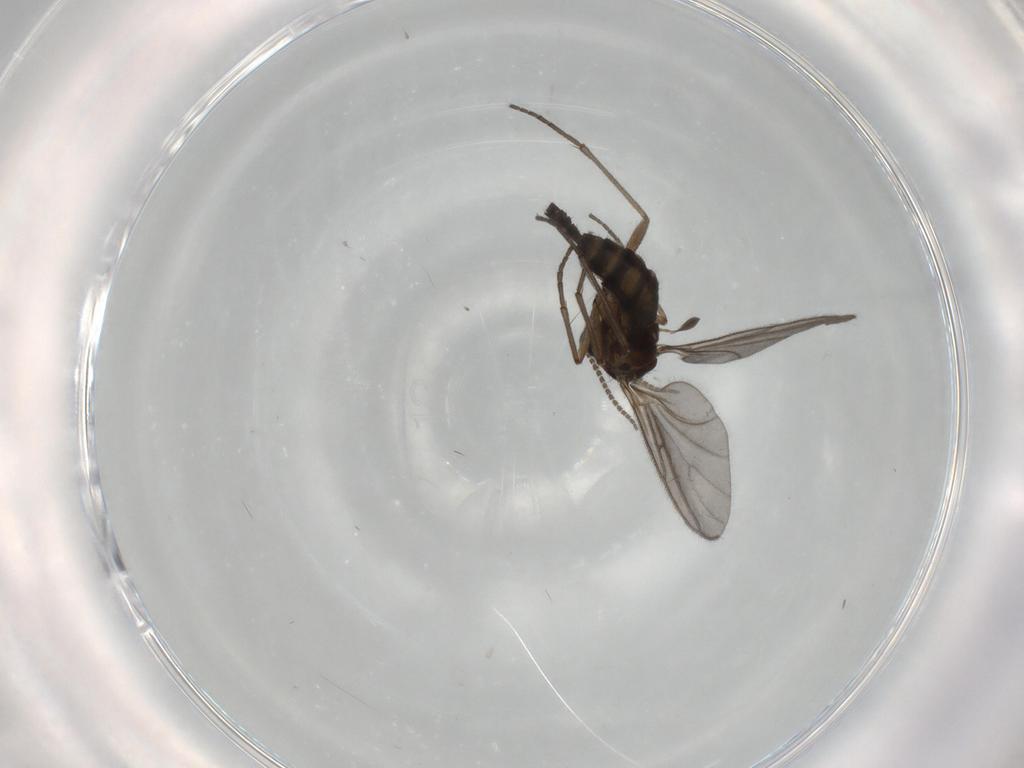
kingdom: Animalia
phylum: Arthropoda
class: Insecta
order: Diptera
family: Sciaridae
